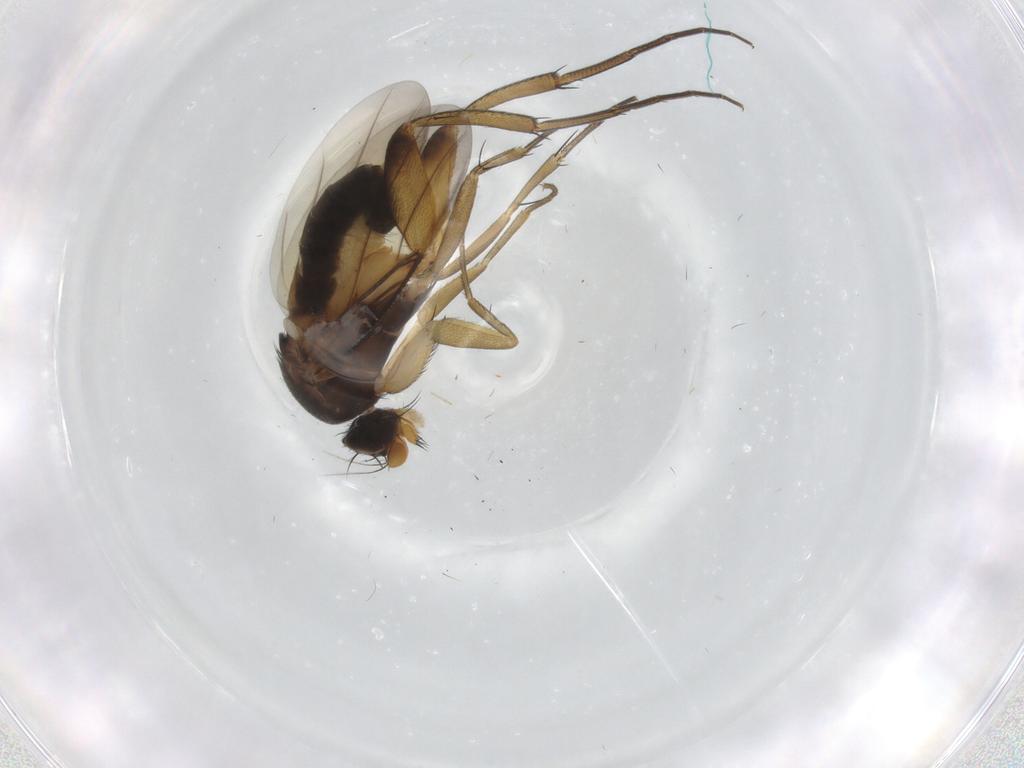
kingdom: Animalia
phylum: Arthropoda
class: Insecta
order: Diptera
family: Phoridae
